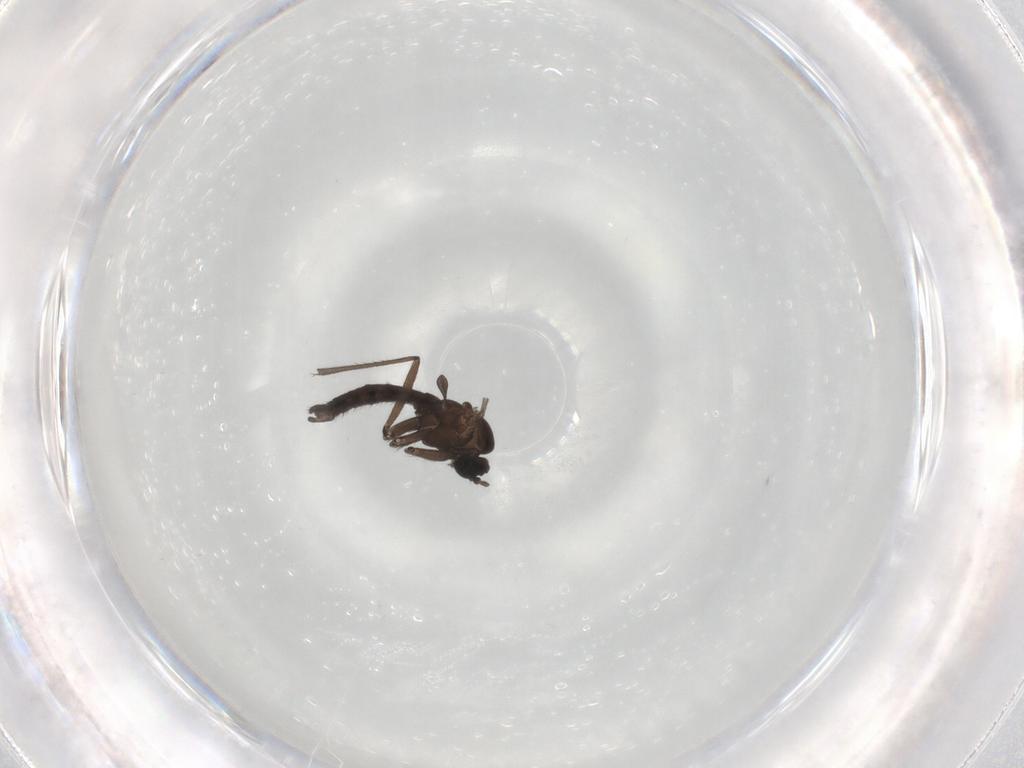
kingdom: Animalia
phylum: Arthropoda
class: Insecta
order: Diptera
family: Sciaridae
